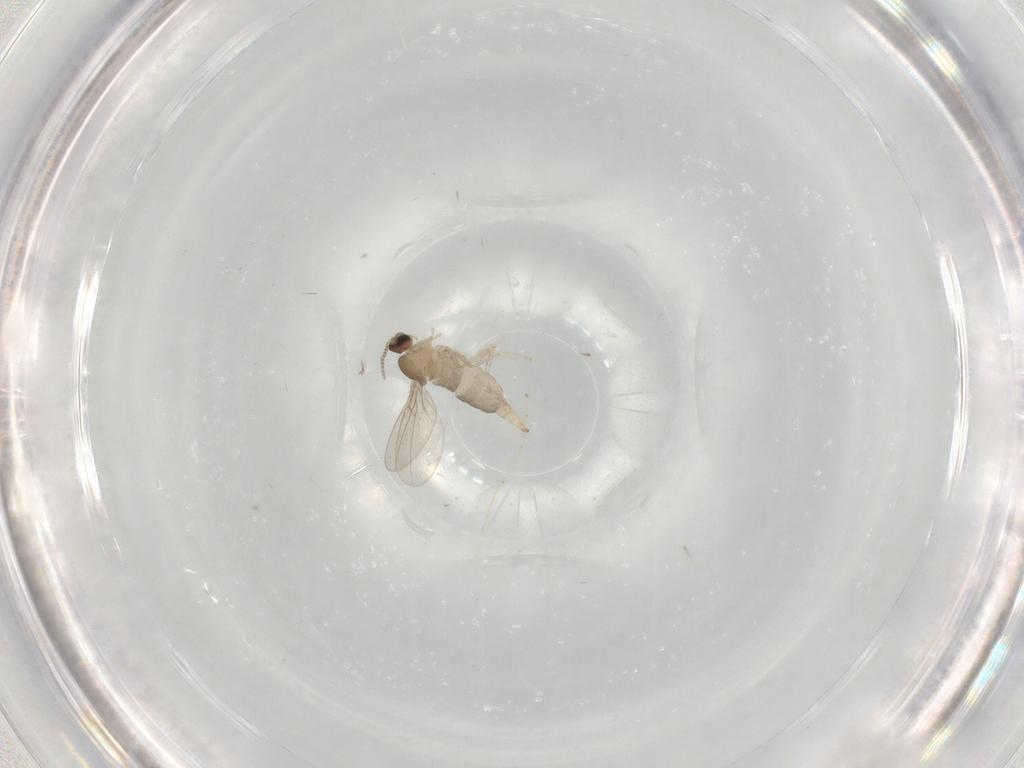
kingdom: Animalia
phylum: Arthropoda
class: Insecta
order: Diptera
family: Cecidomyiidae
